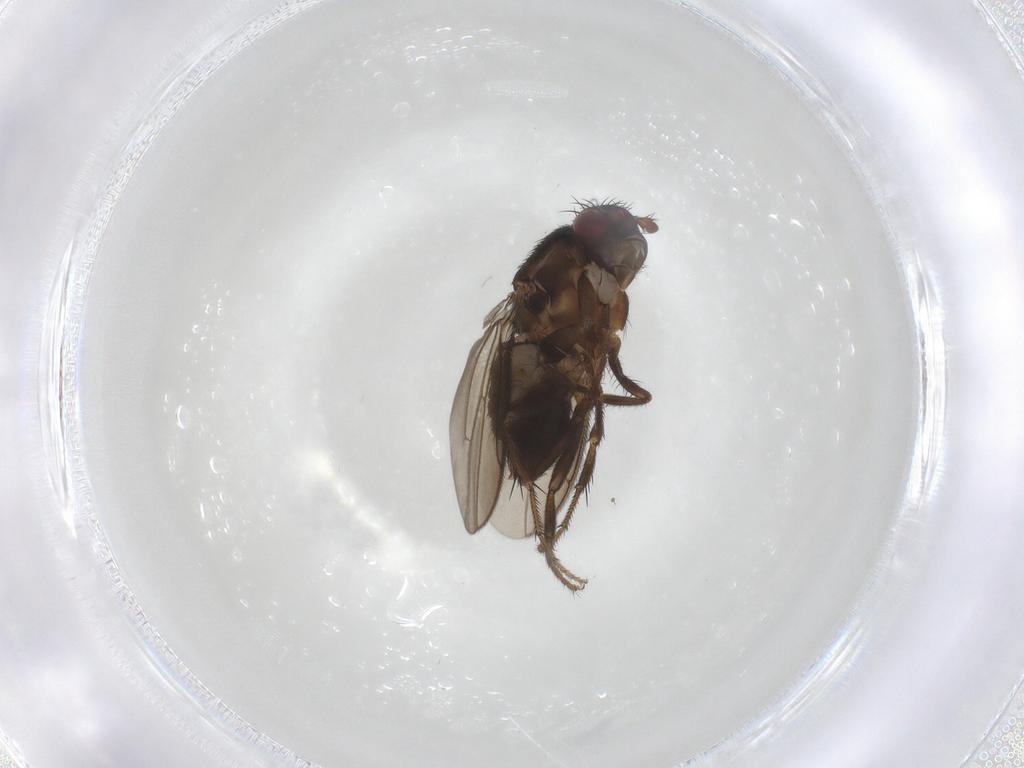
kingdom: Animalia
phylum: Arthropoda
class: Insecta
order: Diptera
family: Sphaeroceridae
